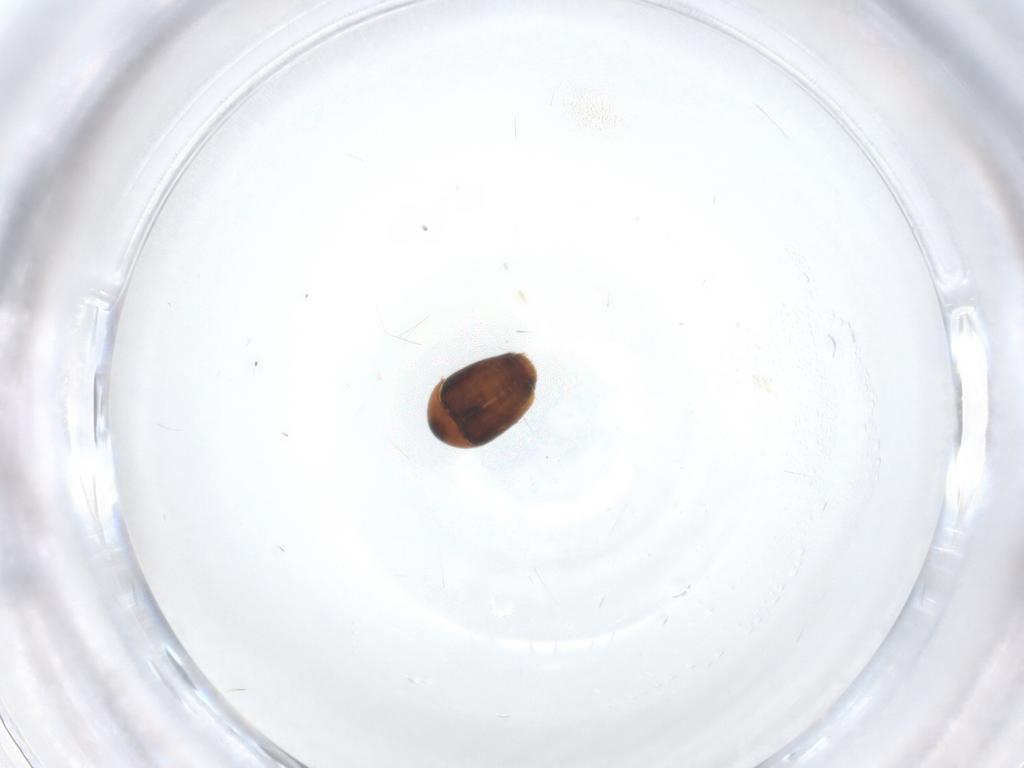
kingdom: Animalia
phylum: Arthropoda
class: Insecta
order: Coleoptera
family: Corylophidae
